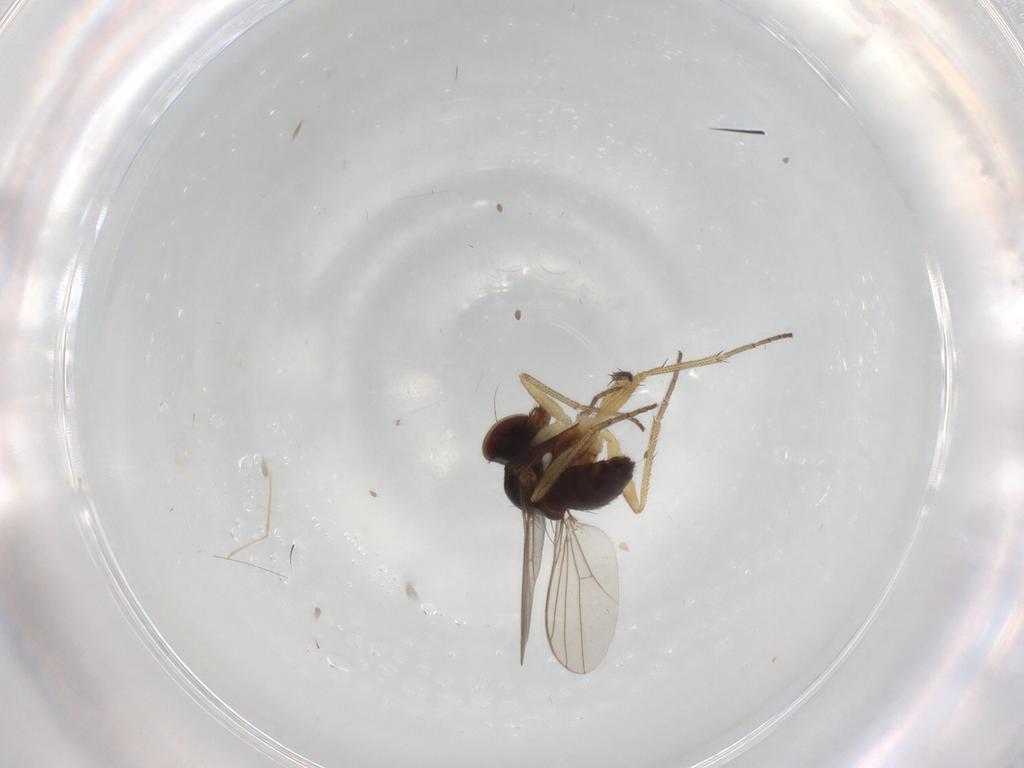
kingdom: Animalia
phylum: Arthropoda
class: Insecta
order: Diptera
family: Dolichopodidae
